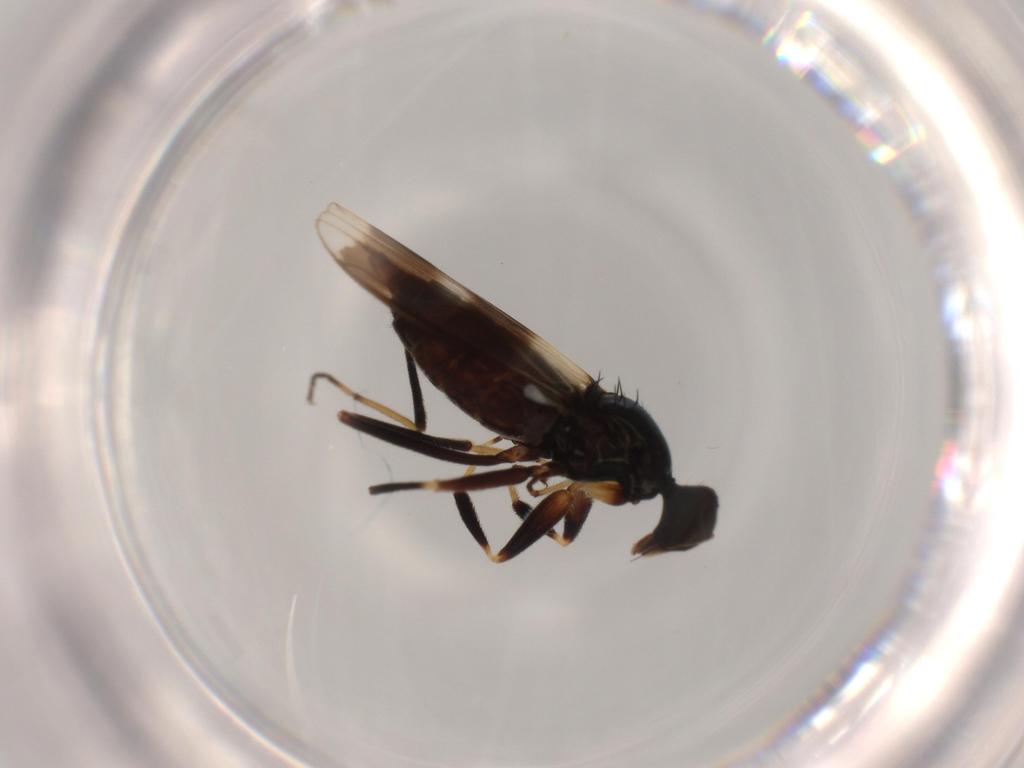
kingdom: Animalia
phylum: Arthropoda
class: Insecta
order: Diptera
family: Hybotidae
